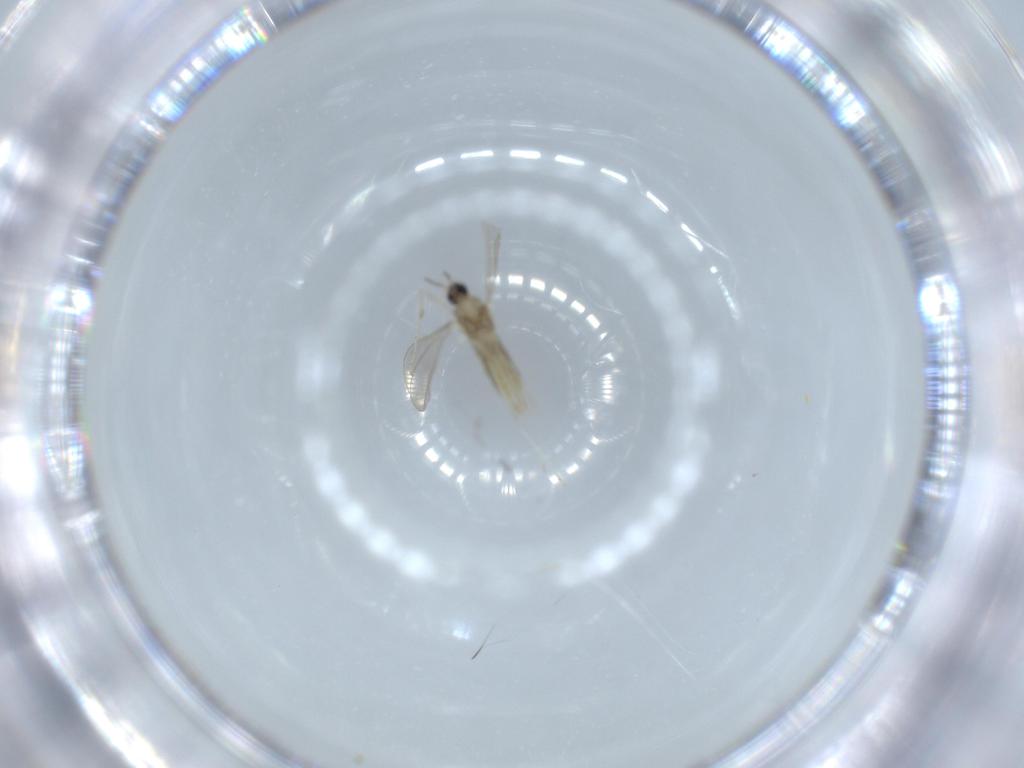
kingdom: Animalia
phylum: Arthropoda
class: Insecta
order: Diptera
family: Cecidomyiidae
